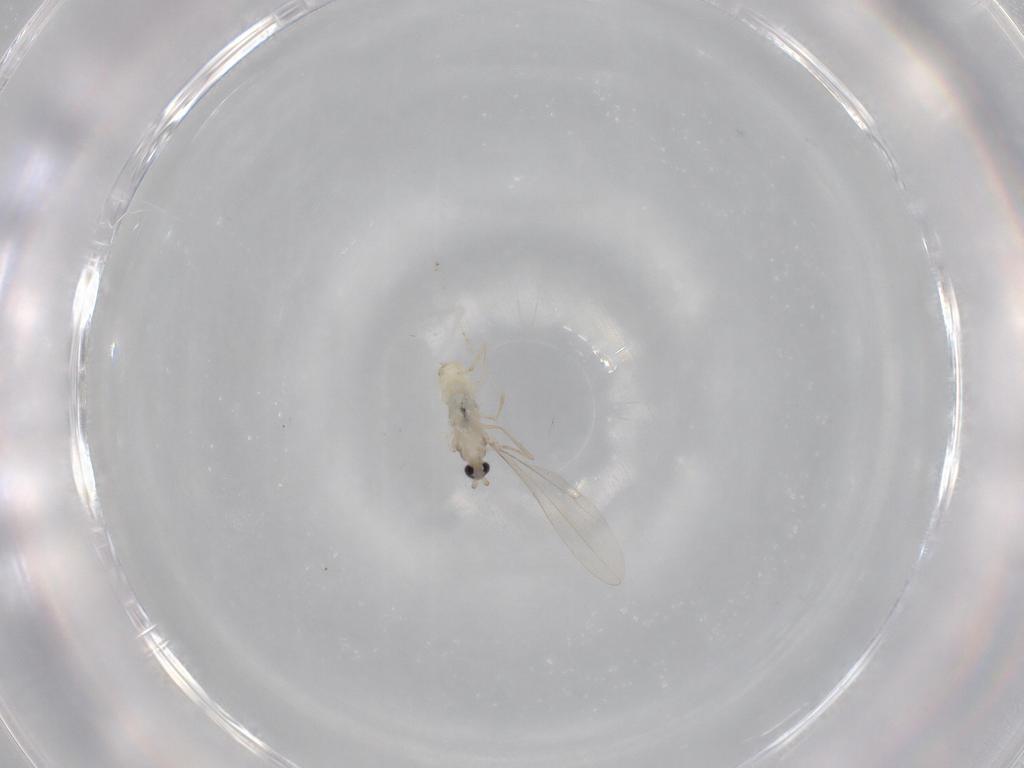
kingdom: Animalia
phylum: Arthropoda
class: Insecta
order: Diptera
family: Cecidomyiidae
